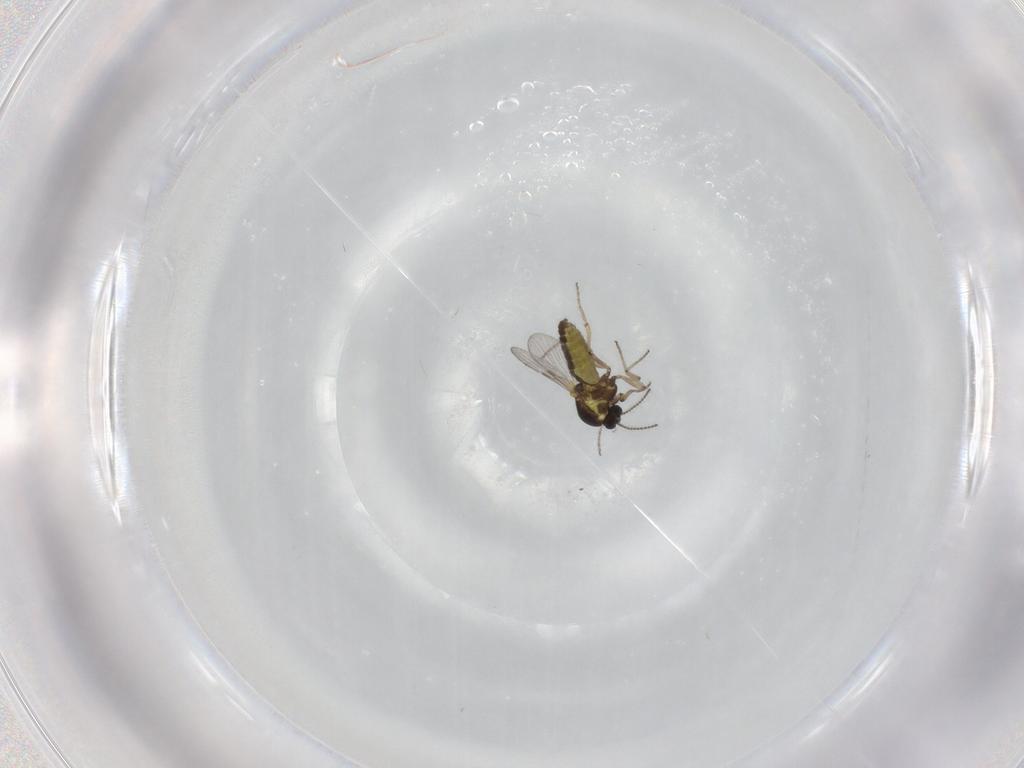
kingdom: Animalia
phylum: Arthropoda
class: Insecta
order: Diptera
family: Ceratopogonidae
